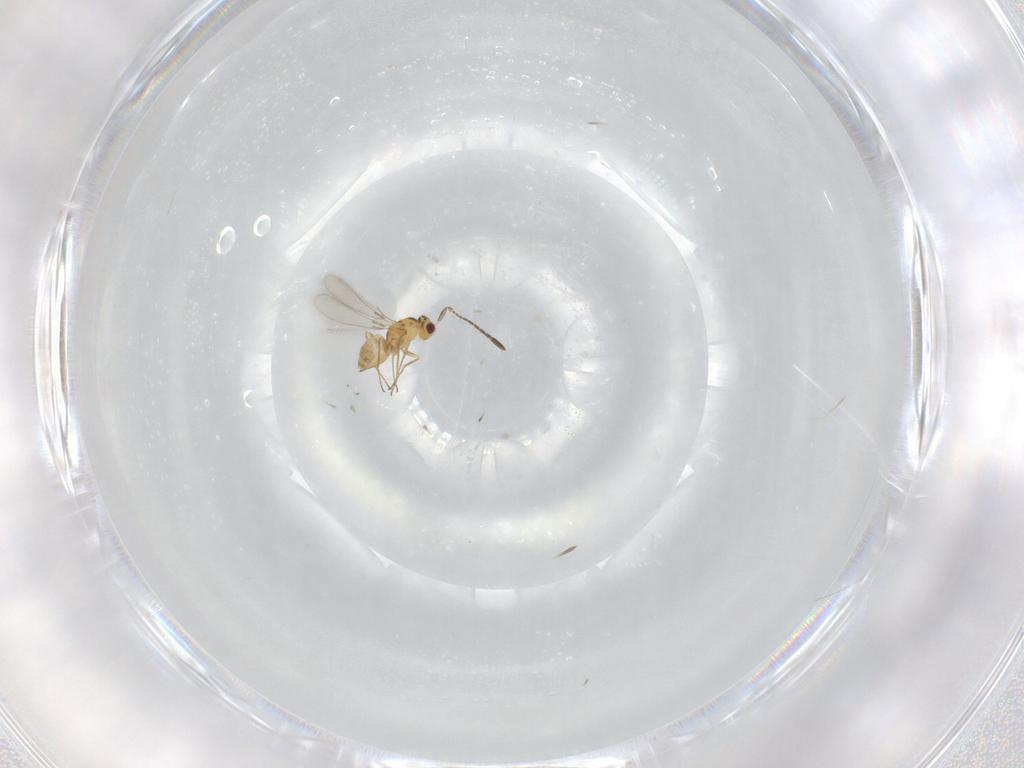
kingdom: Animalia
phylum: Arthropoda
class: Insecta
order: Hymenoptera
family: Mymaridae
